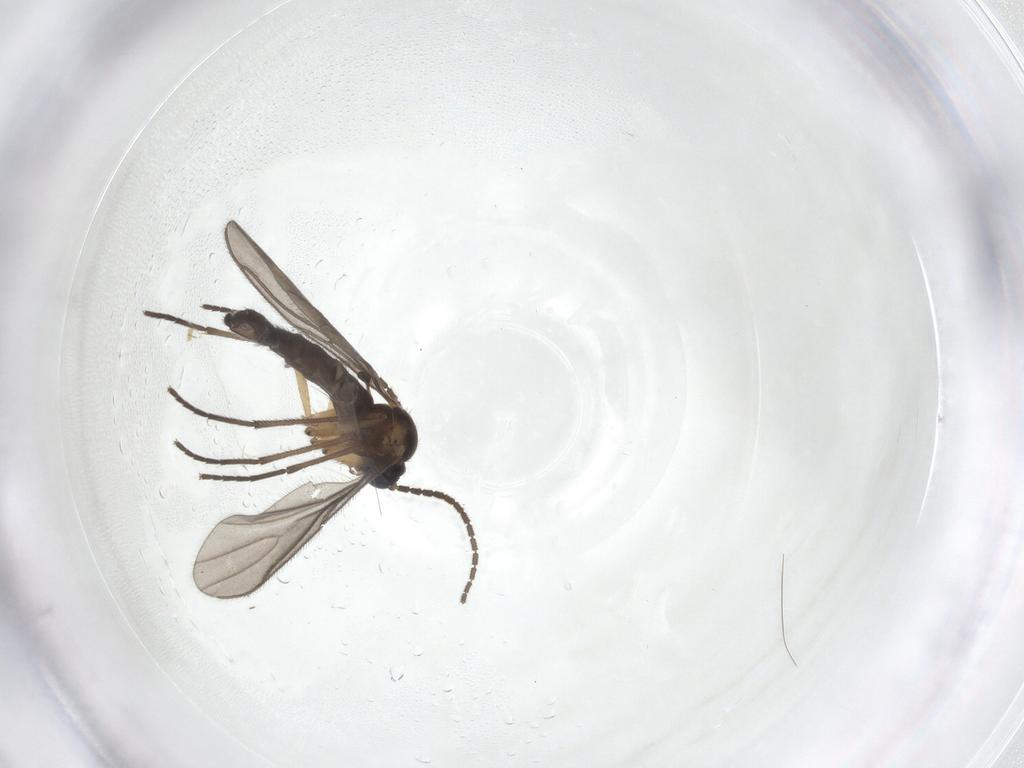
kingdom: Animalia
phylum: Arthropoda
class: Insecta
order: Diptera
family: Sciaridae
